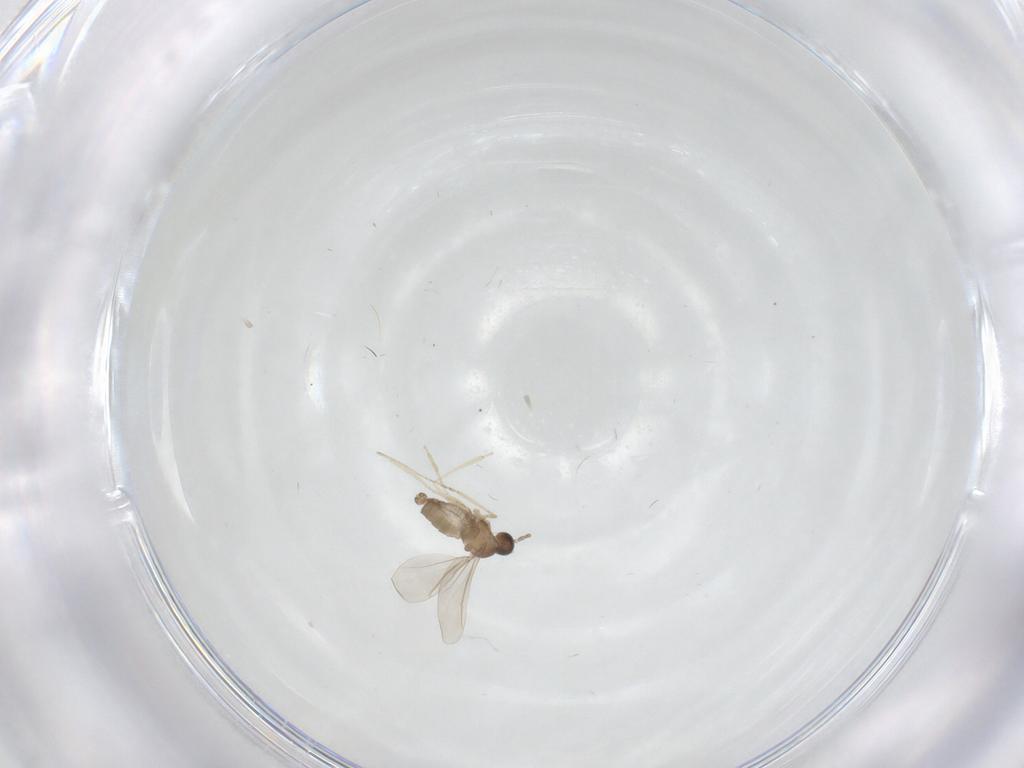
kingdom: Animalia
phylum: Arthropoda
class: Insecta
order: Diptera
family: Cecidomyiidae
